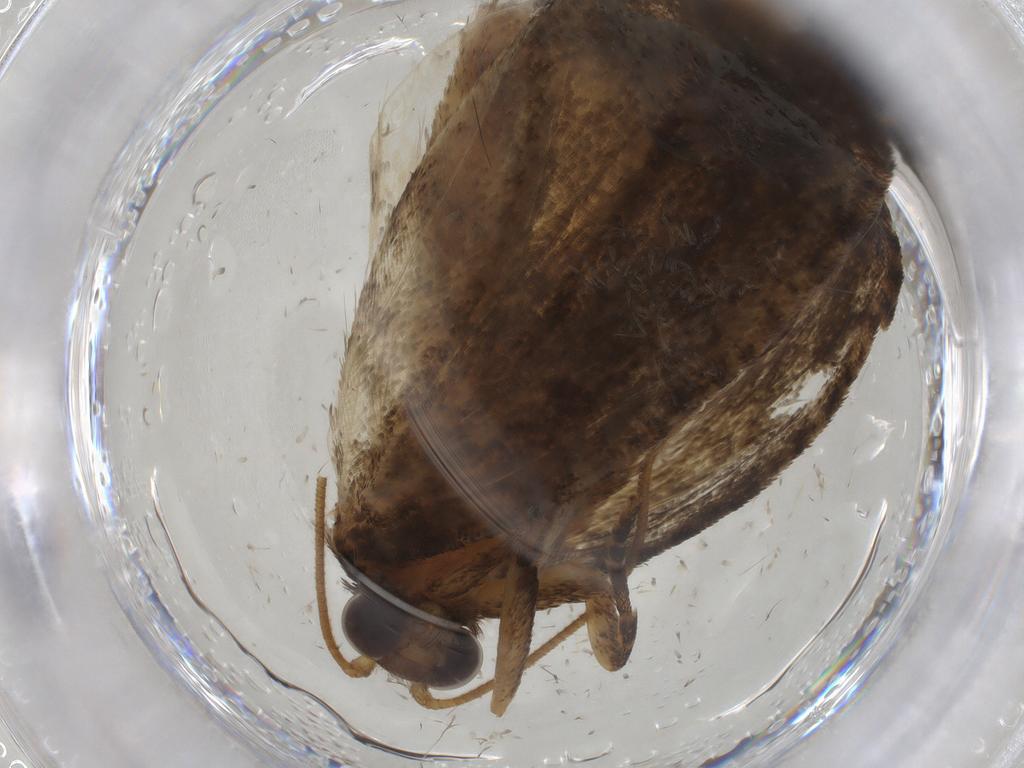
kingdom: Animalia
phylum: Arthropoda
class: Insecta
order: Lepidoptera
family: Tortricidae
